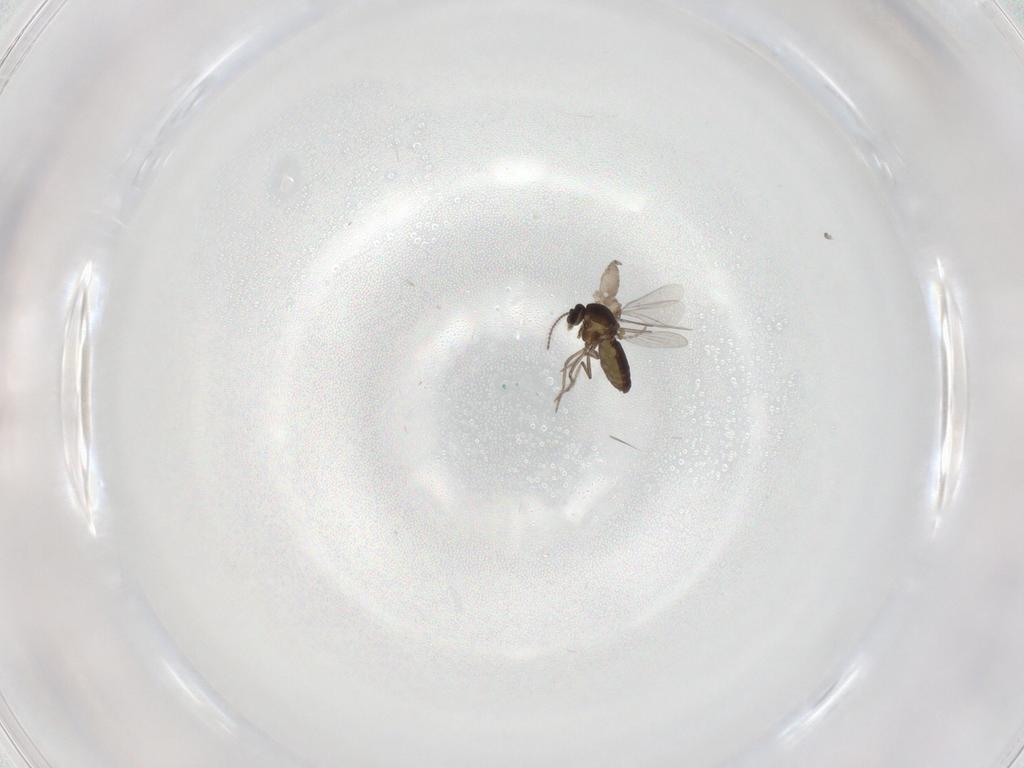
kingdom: Animalia
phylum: Arthropoda
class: Insecta
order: Diptera
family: Ceratopogonidae
